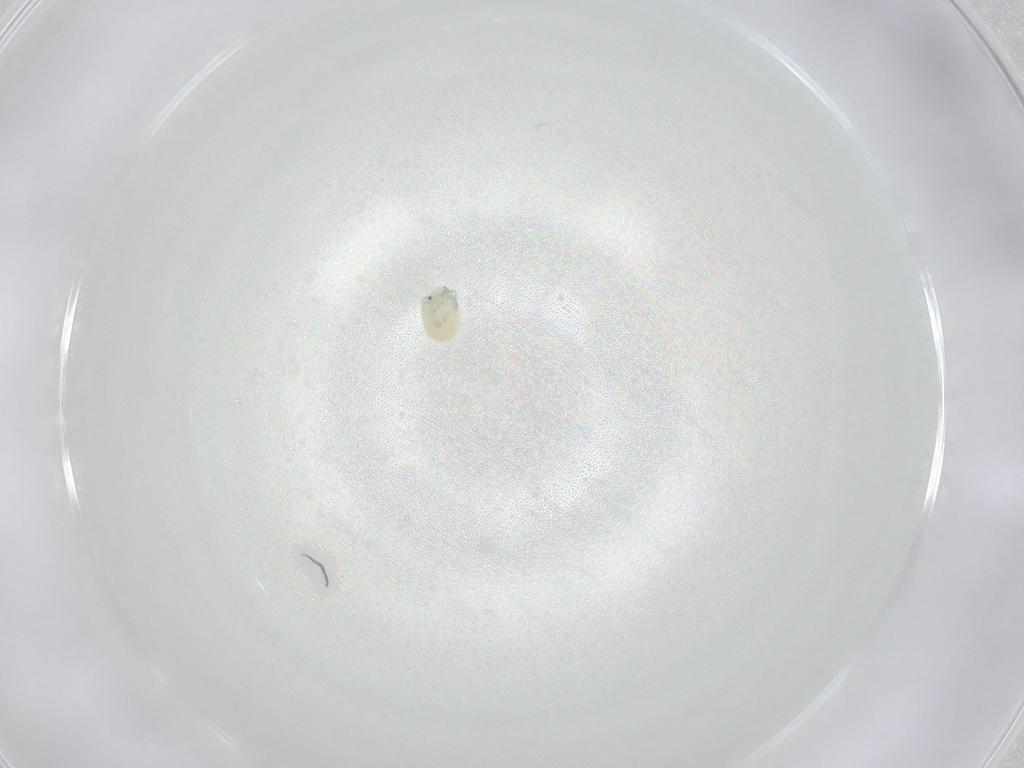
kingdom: Animalia
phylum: Arthropoda
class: Arachnida
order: Trombidiformes
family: Arrenuridae
